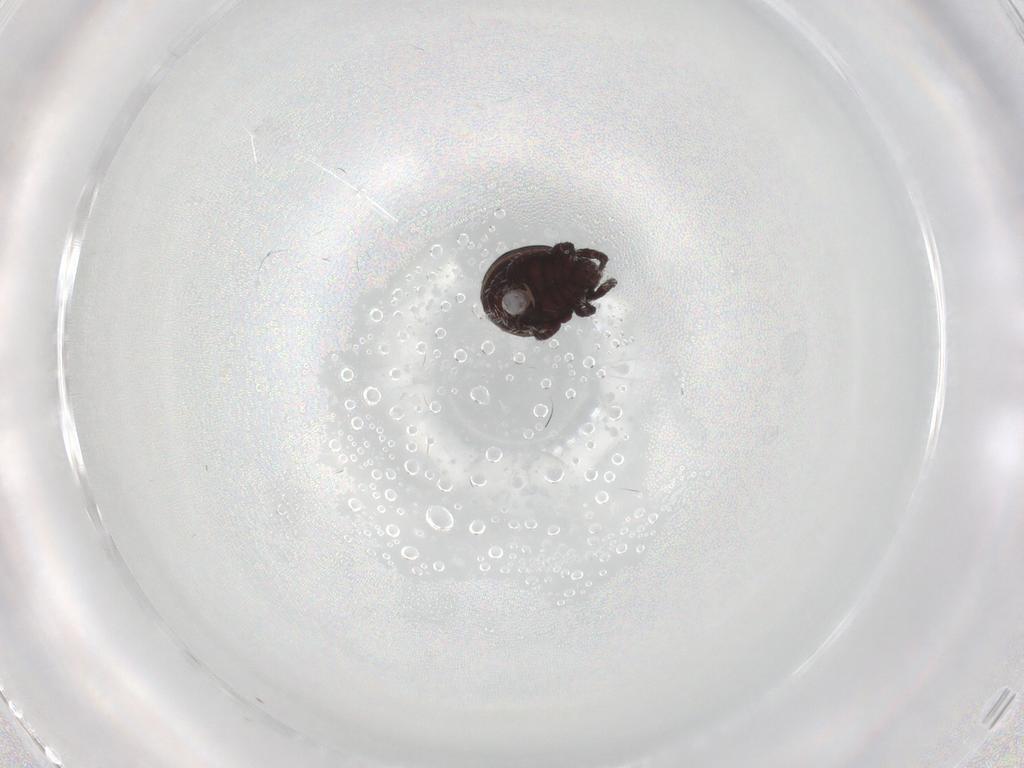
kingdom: Animalia
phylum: Arthropoda
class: Arachnida
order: Sarcoptiformes
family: Hermanniidae
